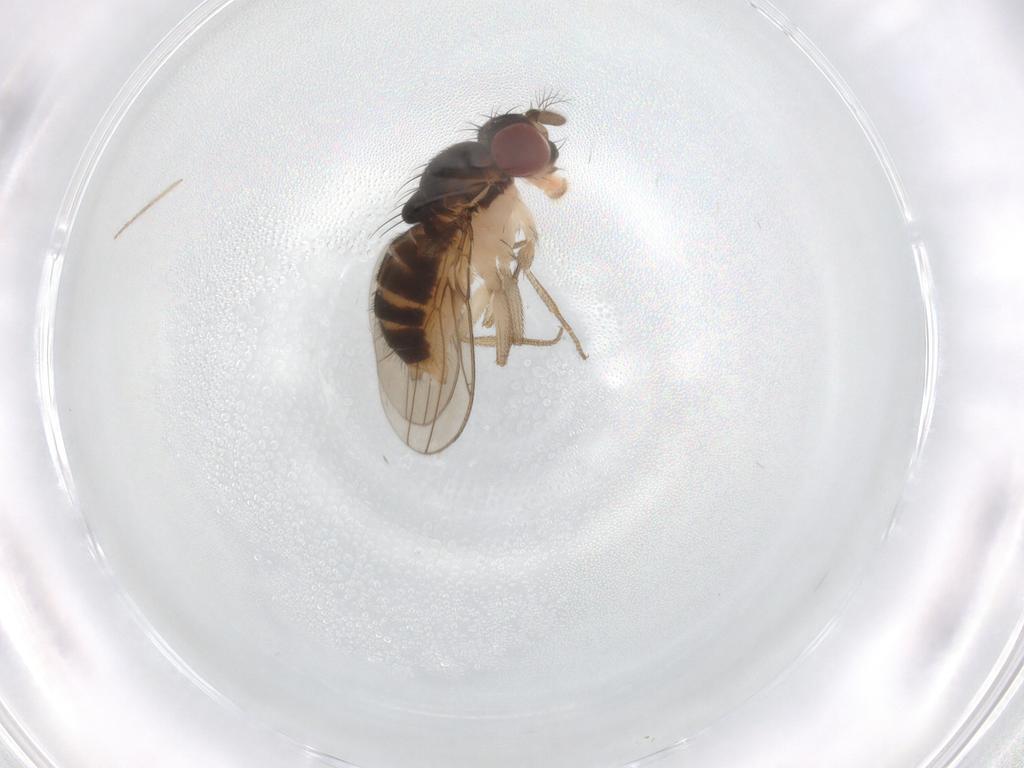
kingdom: Animalia
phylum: Arthropoda
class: Insecta
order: Diptera
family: Drosophilidae
